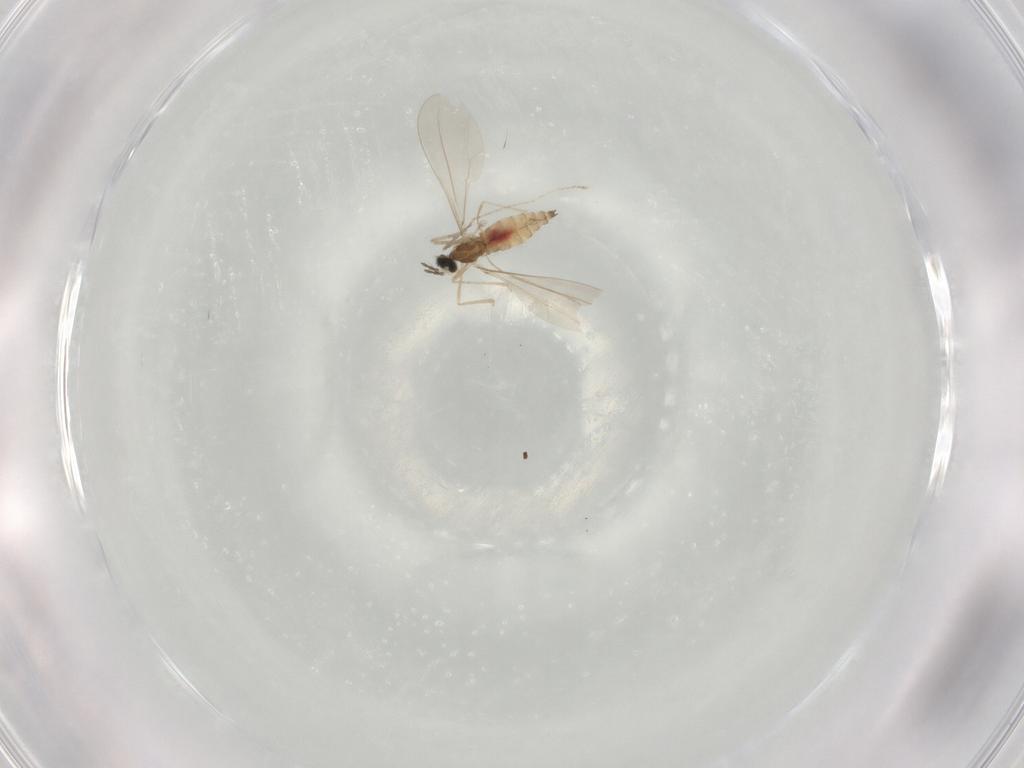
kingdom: Animalia
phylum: Arthropoda
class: Insecta
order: Diptera
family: Cecidomyiidae
